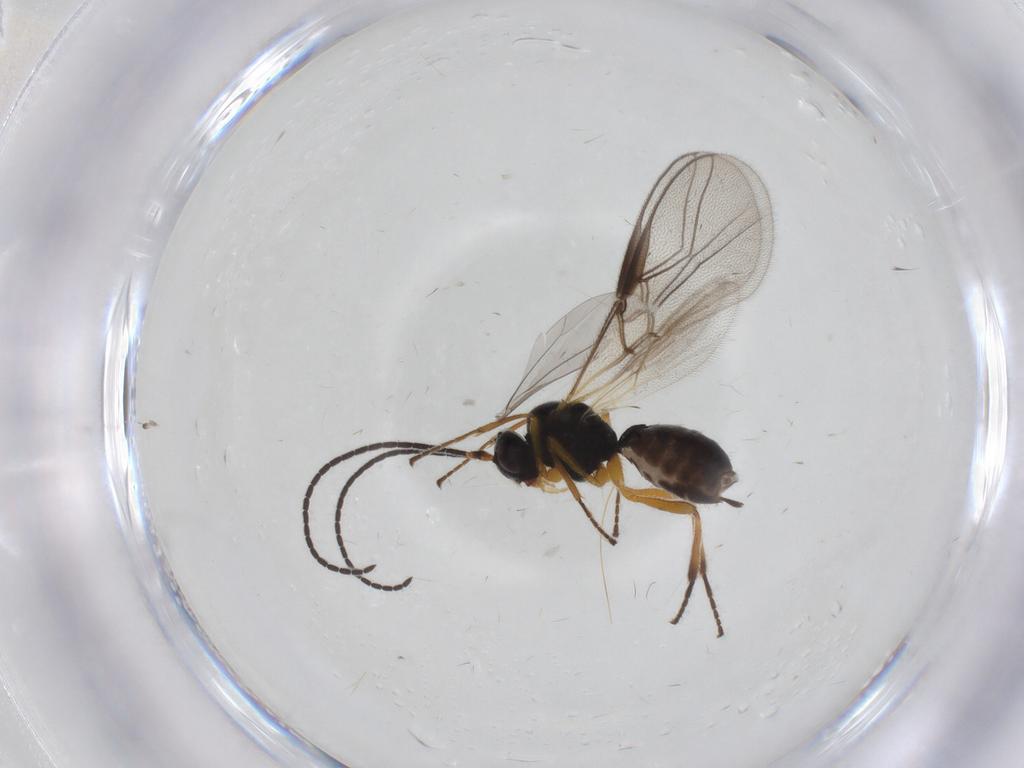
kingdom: Animalia
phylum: Arthropoda
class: Insecta
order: Hymenoptera
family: Braconidae
